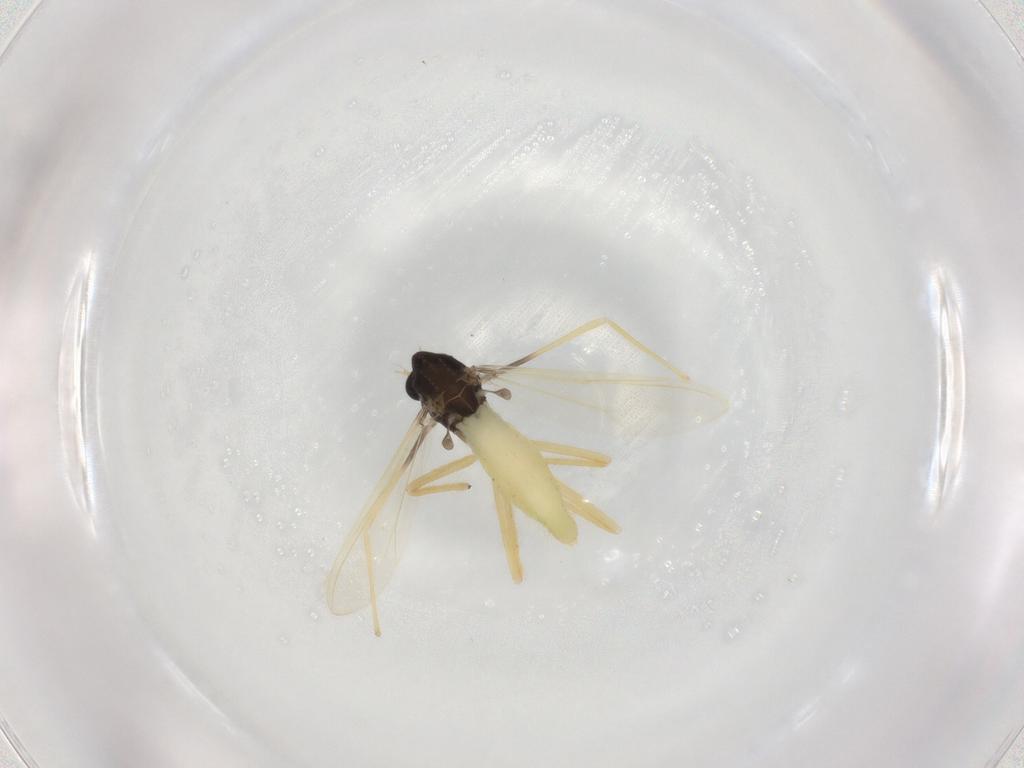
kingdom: Animalia
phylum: Arthropoda
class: Insecta
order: Diptera
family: Chironomidae
